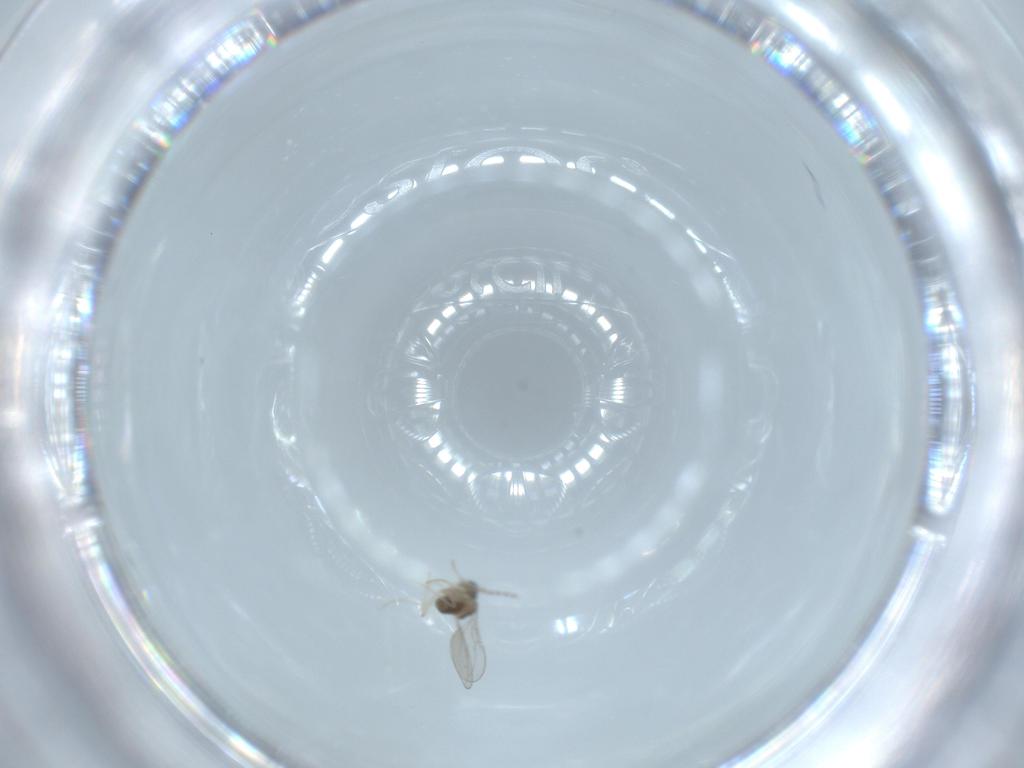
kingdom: Animalia
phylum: Arthropoda
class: Insecta
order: Diptera
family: Cecidomyiidae
